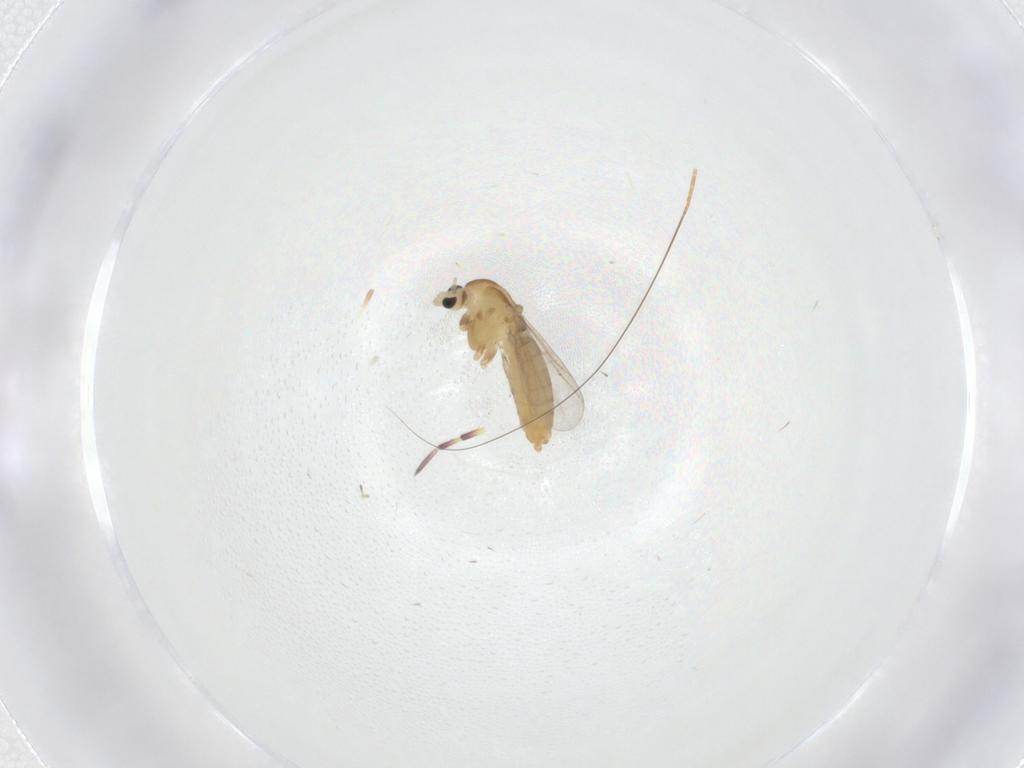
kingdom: Animalia
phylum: Arthropoda
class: Insecta
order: Diptera
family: Chironomidae
